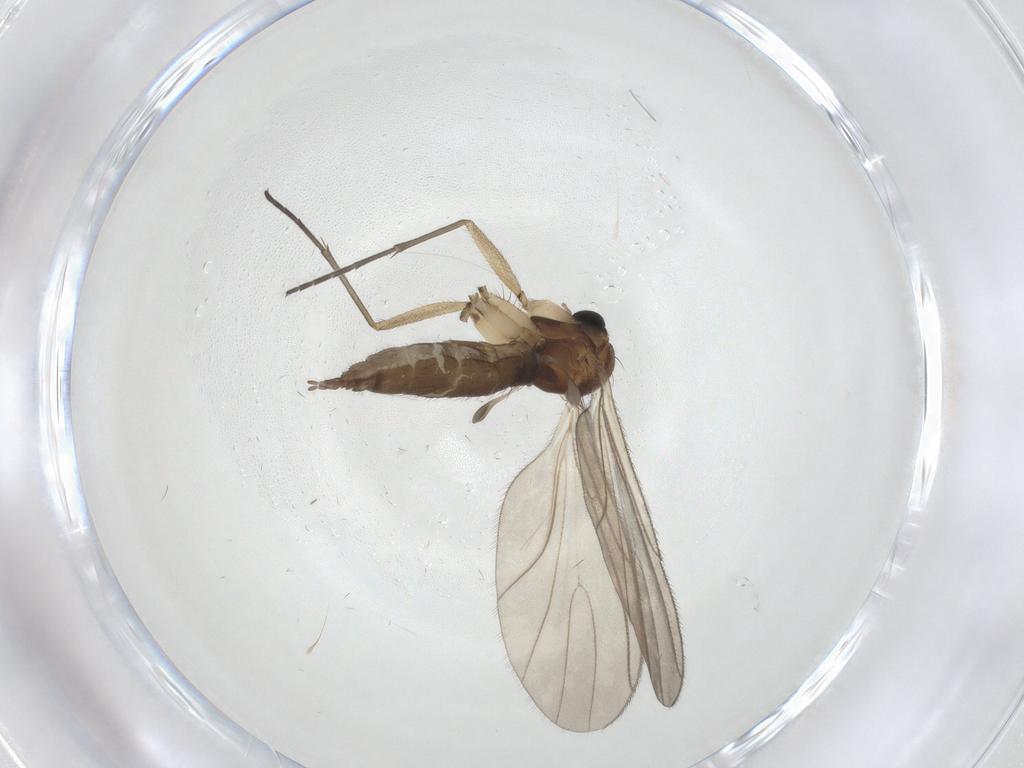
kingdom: Animalia
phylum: Arthropoda
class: Insecta
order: Diptera
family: Sciaridae
